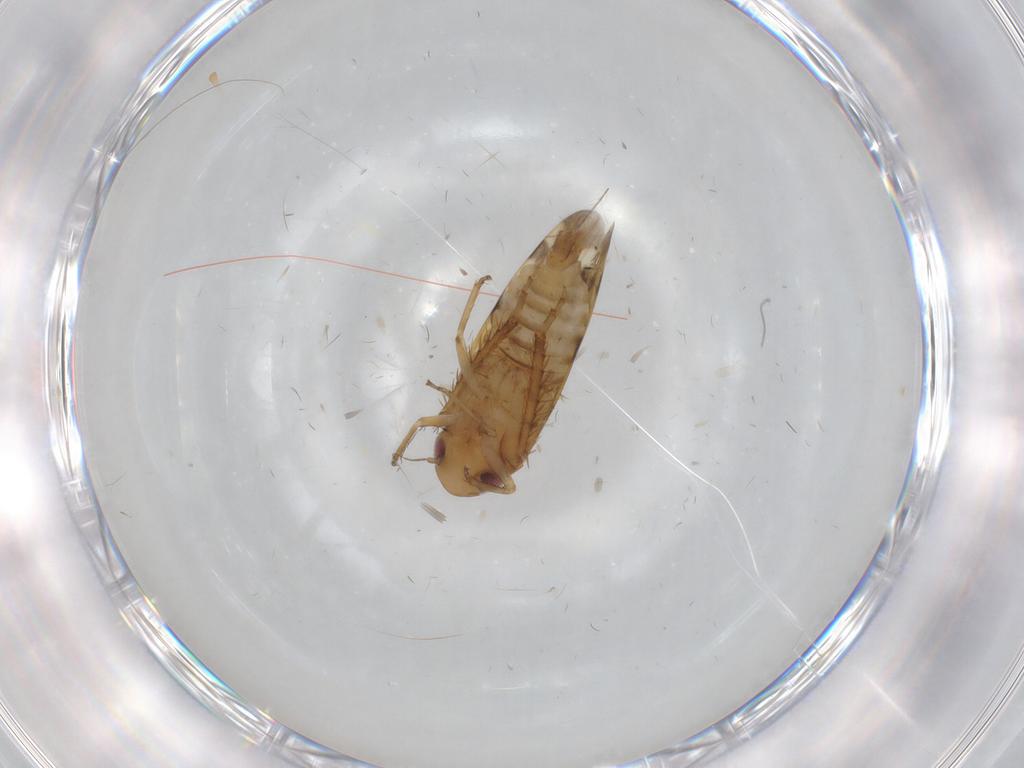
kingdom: Animalia
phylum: Arthropoda
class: Insecta
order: Hemiptera
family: Cicadellidae
